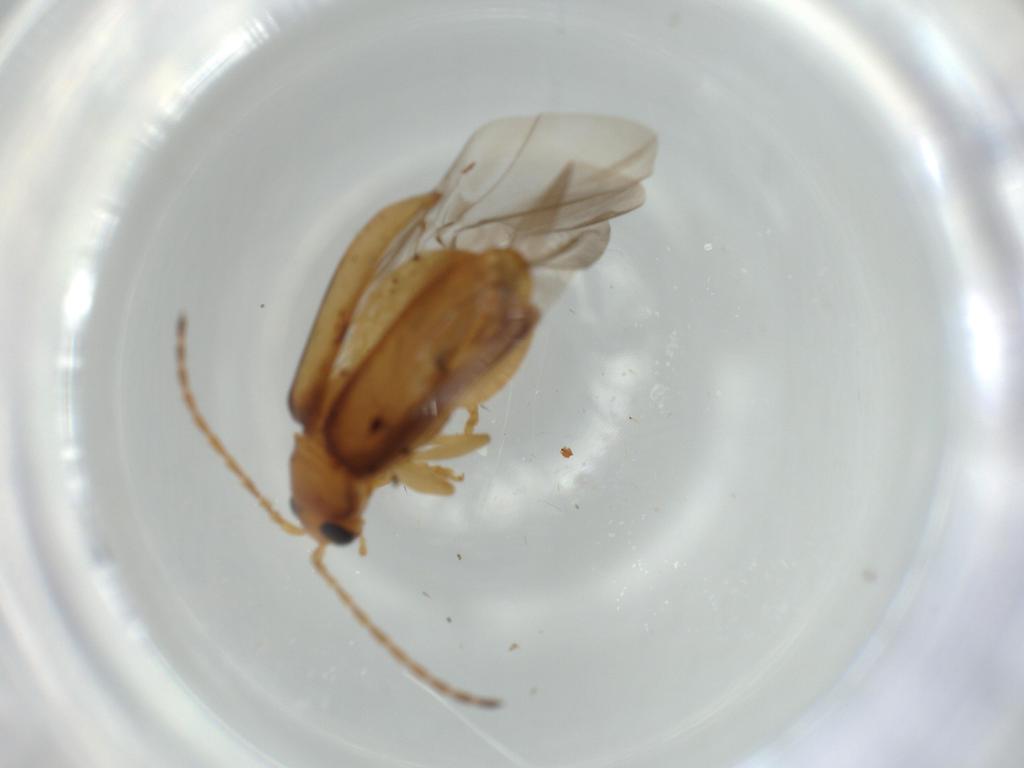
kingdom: Animalia
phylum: Arthropoda
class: Insecta
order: Coleoptera
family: Chrysomelidae
